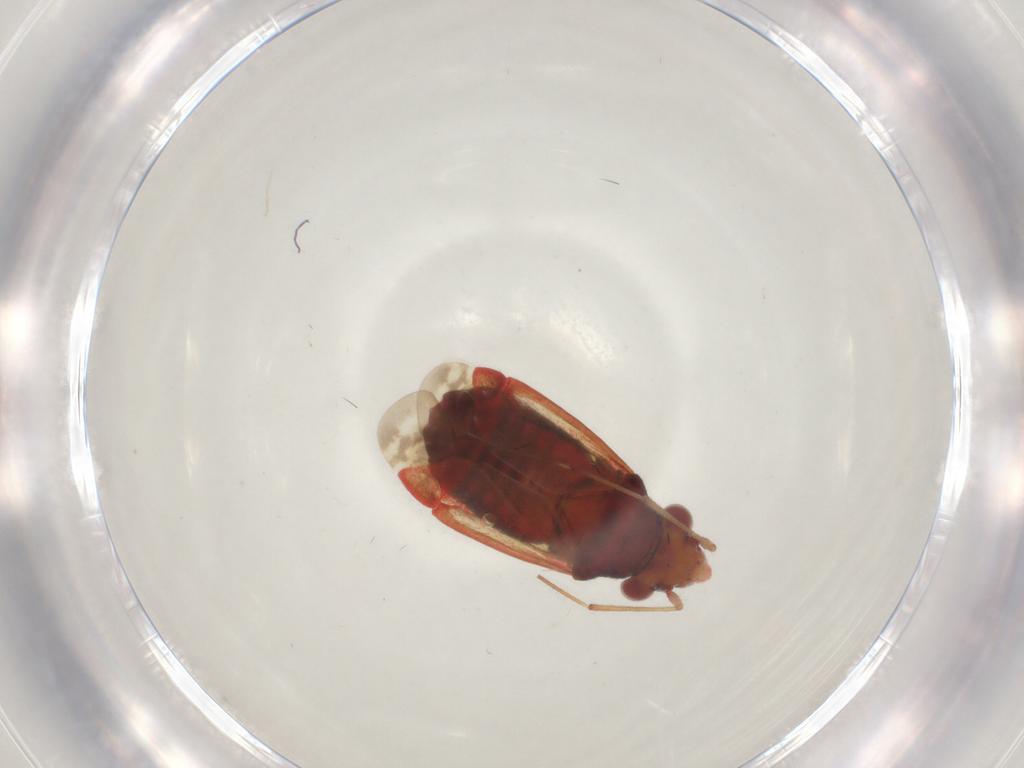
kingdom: Animalia
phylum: Arthropoda
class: Insecta
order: Hemiptera
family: Miridae
